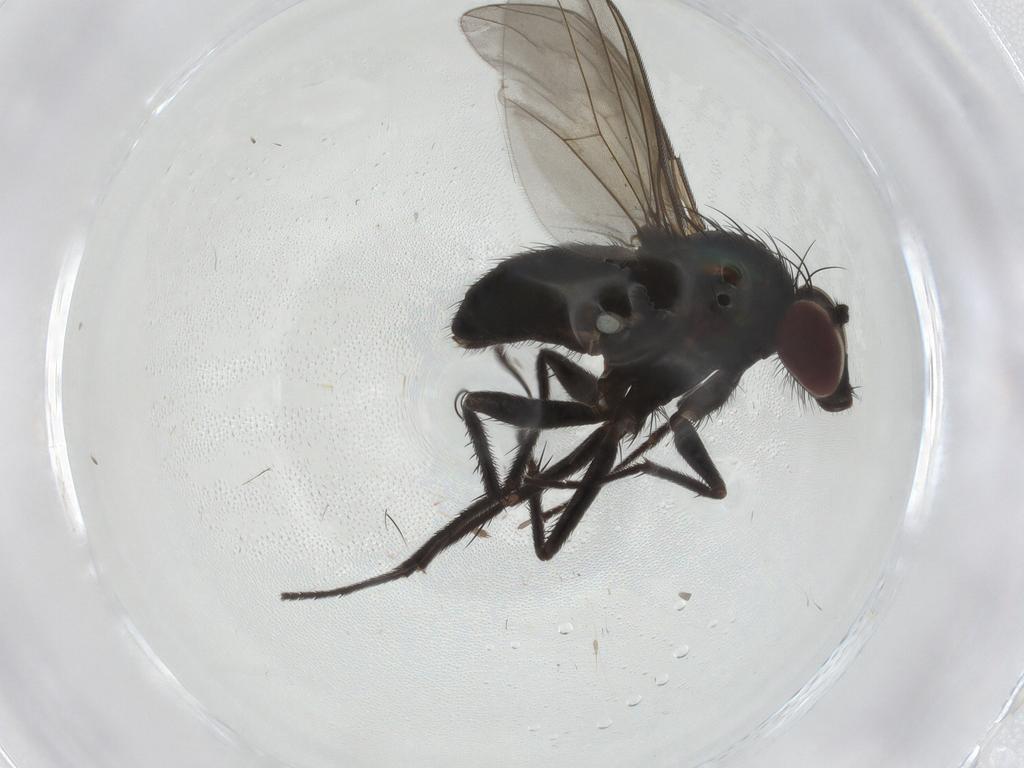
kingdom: Animalia
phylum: Arthropoda
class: Insecta
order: Diptera
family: Dolichopodidae
